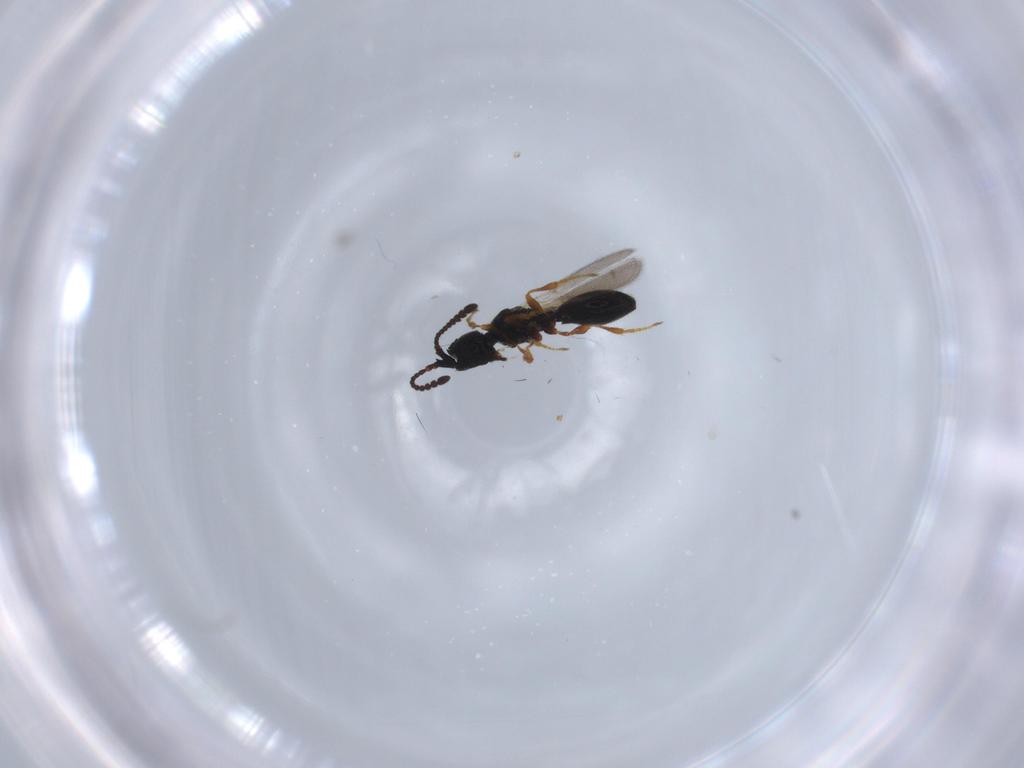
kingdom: Animalia
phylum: Arthropoda
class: Insecta
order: Hymenoptera
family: Diapriidae
